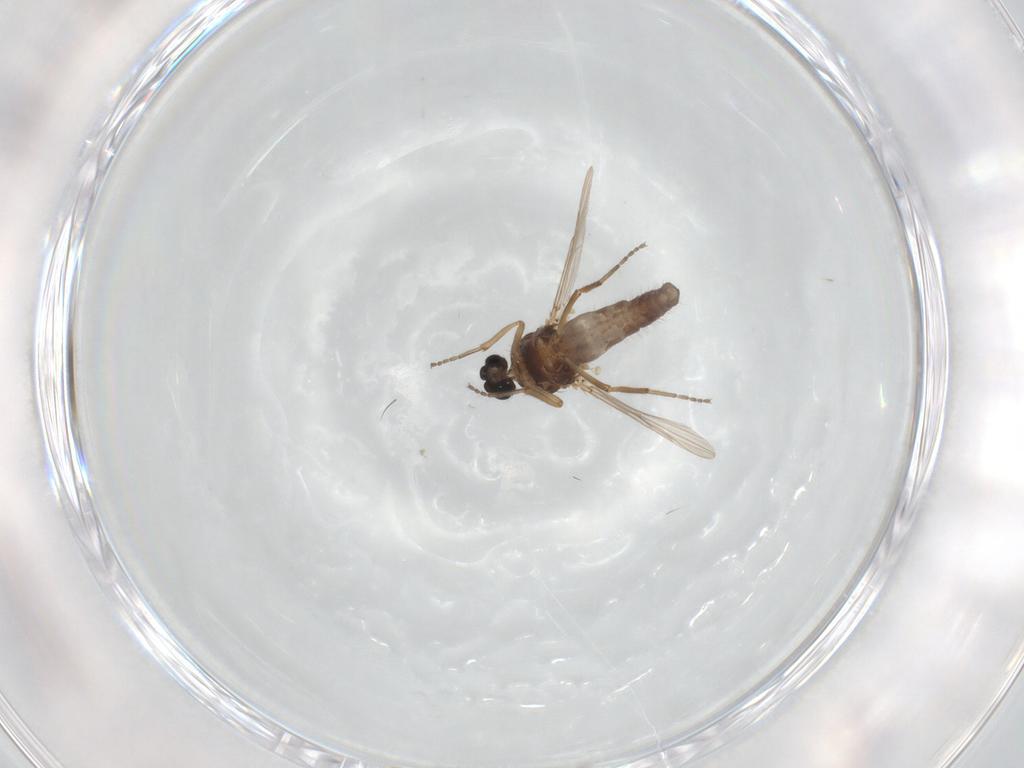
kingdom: Animalia
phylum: Arthropoda
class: Insecta
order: Diptera
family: Ceratopogonidae
